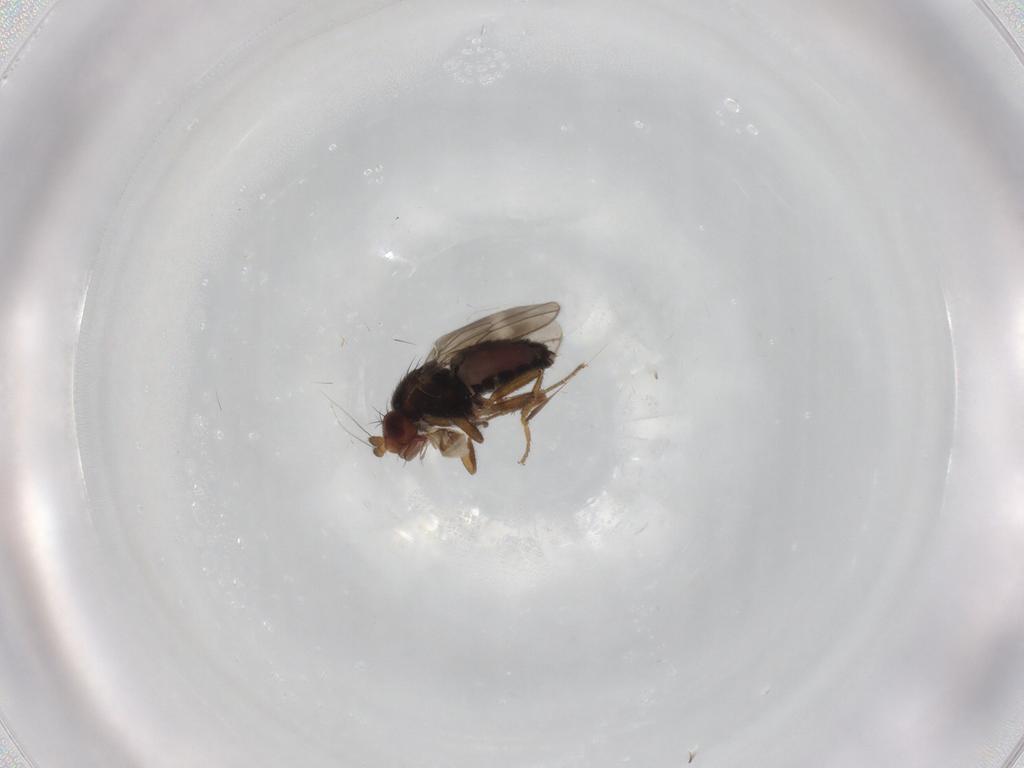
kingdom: Animalia
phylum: Arthropoda
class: Insecta
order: Diptera
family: Sphaeroceridae
